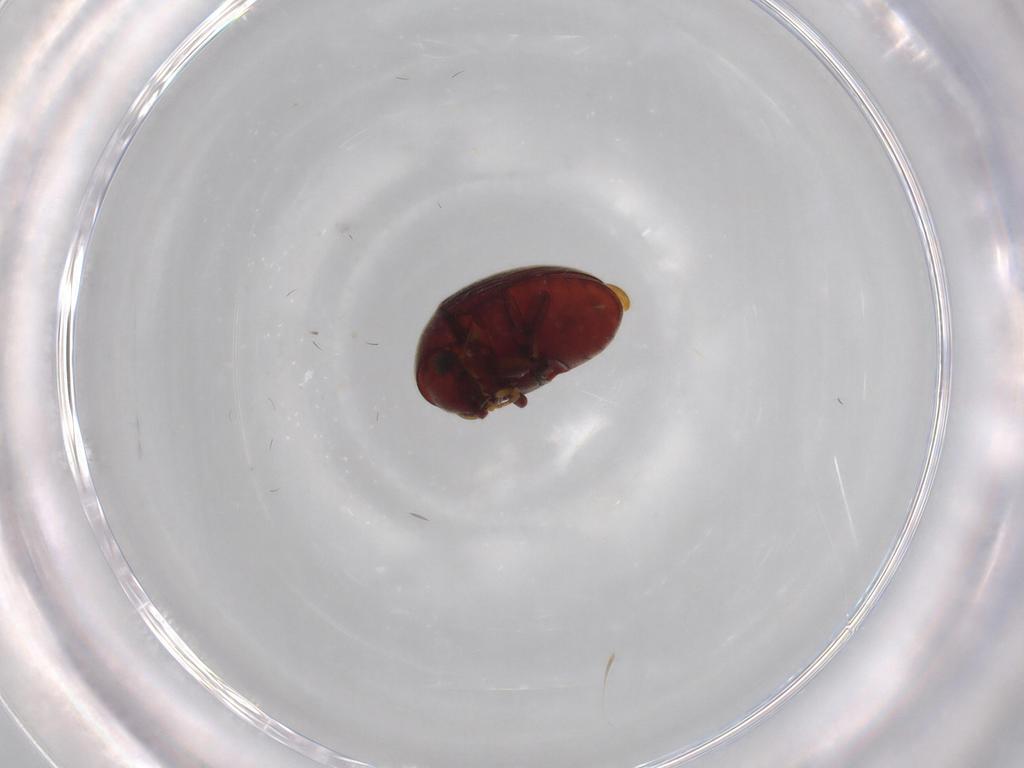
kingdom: Animalia
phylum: Arthropoda
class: Insecta
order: Coleoptera
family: Ptinidae
